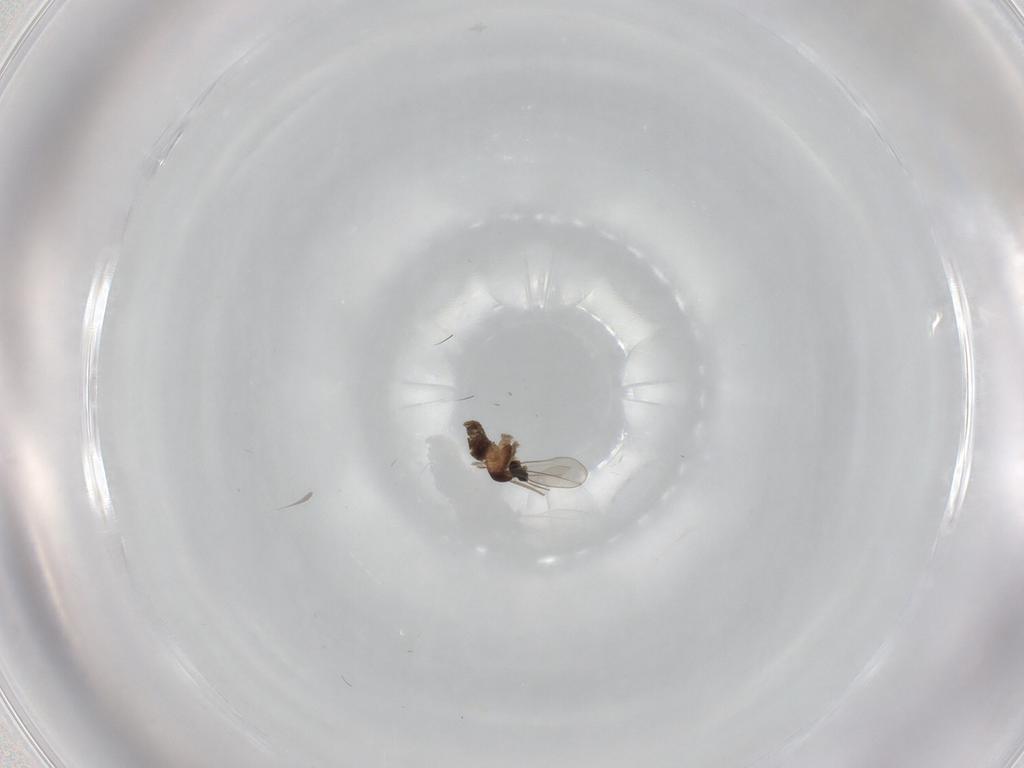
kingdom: Animalia
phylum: Arthropoda
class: Insecta
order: Diptera
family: Cecidomyiidae
